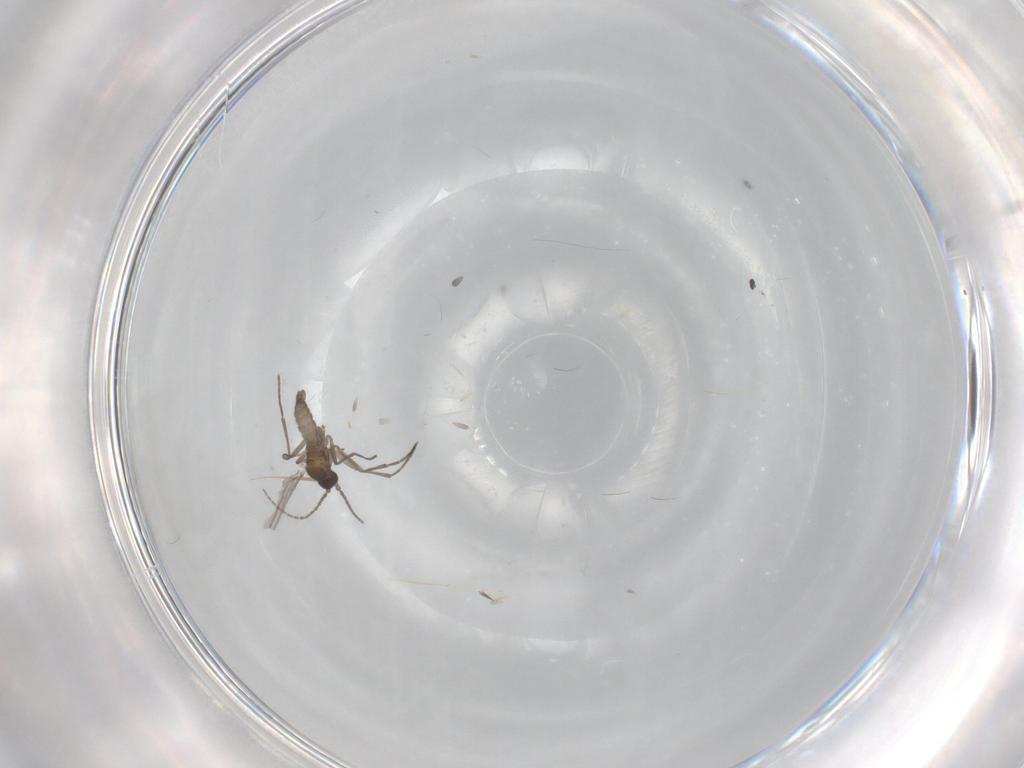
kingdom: Animalia
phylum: Arthropoda
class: Insecta
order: Diptera
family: Sciaridae
